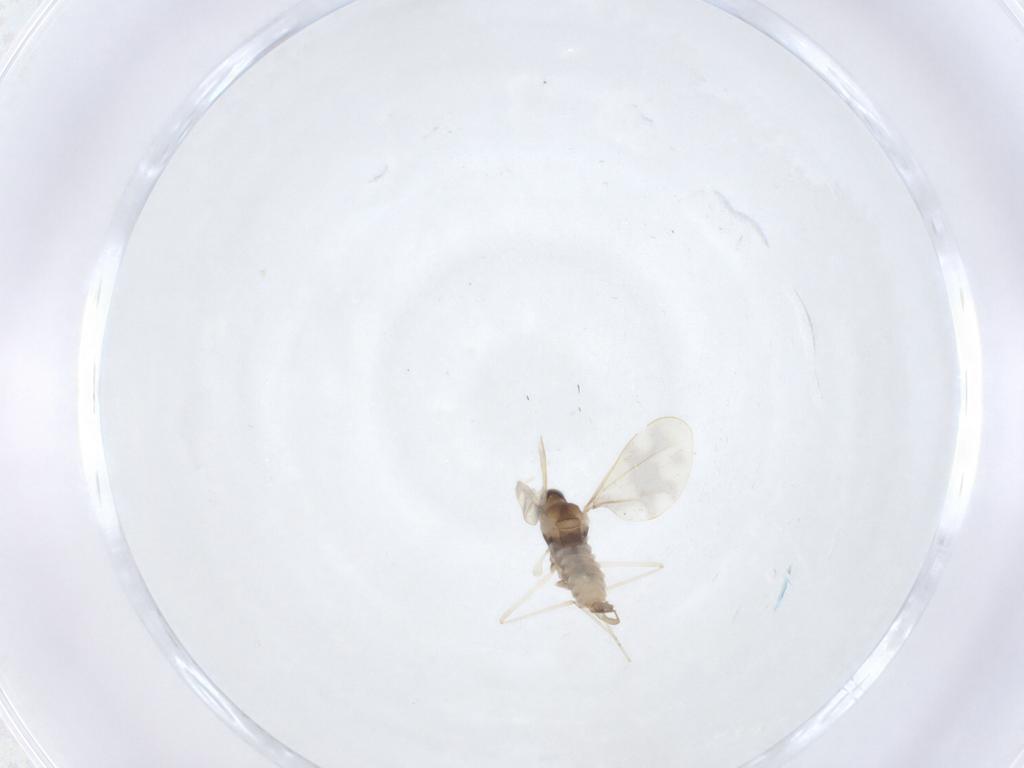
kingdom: Animalia
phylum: Arthropoda
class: Insecta
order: Diptera
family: Cecidomyiidae
